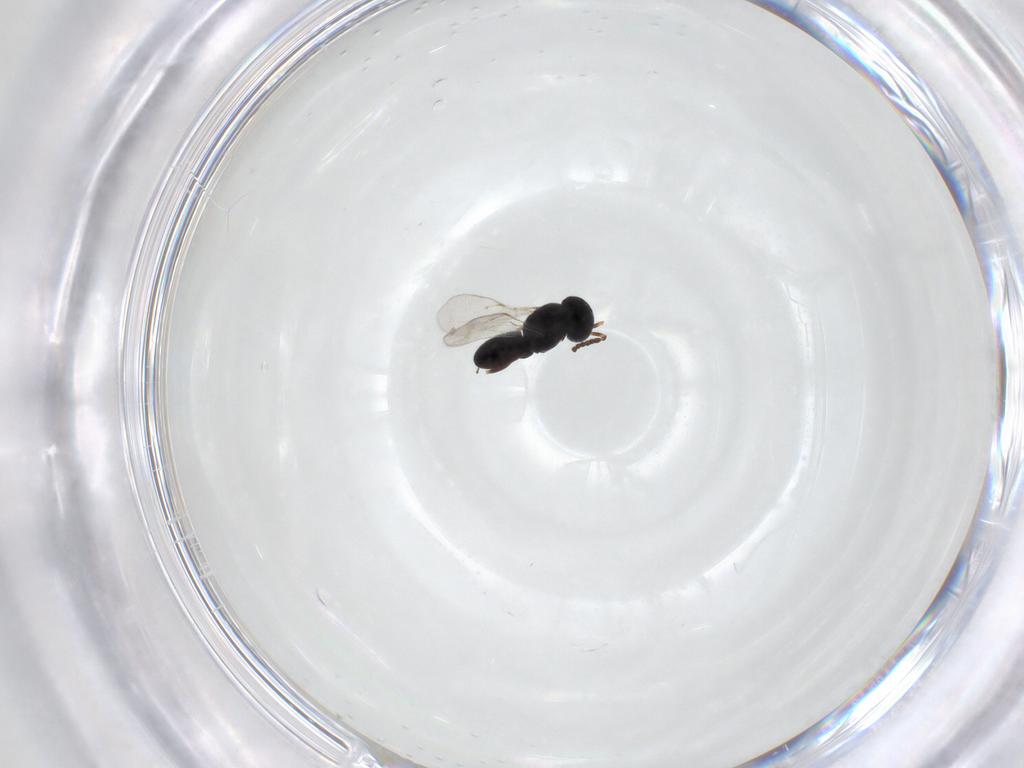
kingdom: Animalia
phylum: Arthropoda
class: Insecta
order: Hymenoptera
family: Scelionidae
